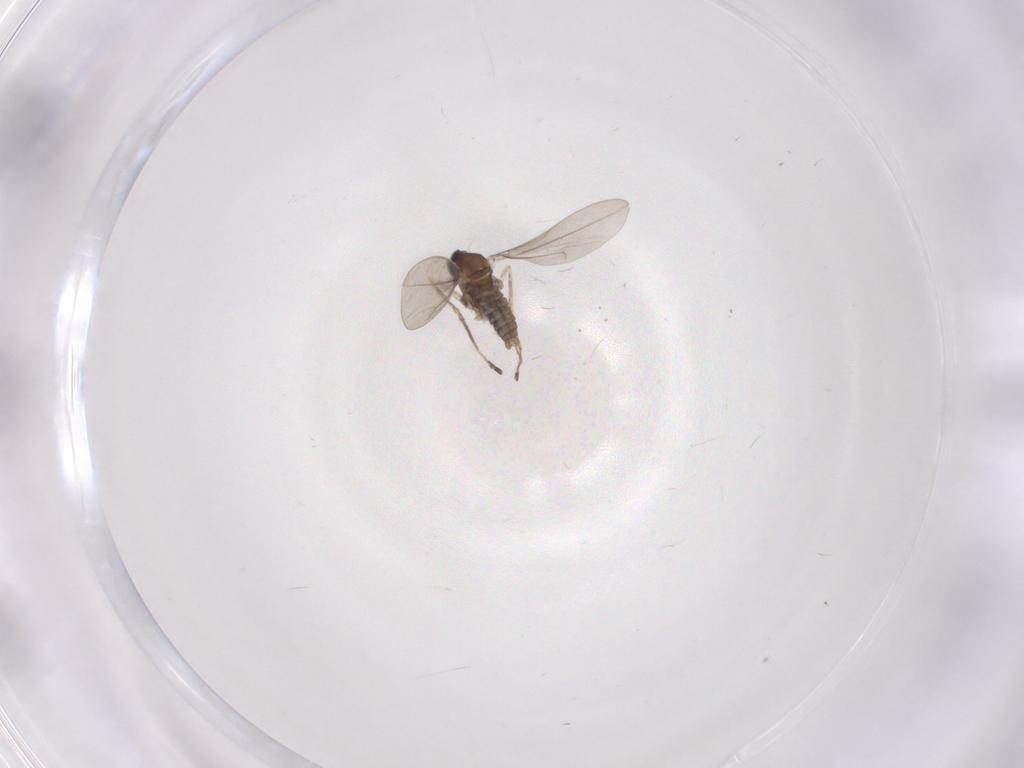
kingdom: Animalia
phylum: Arthropoda
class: Insecta
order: Diptera
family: Cecidomyiidae
